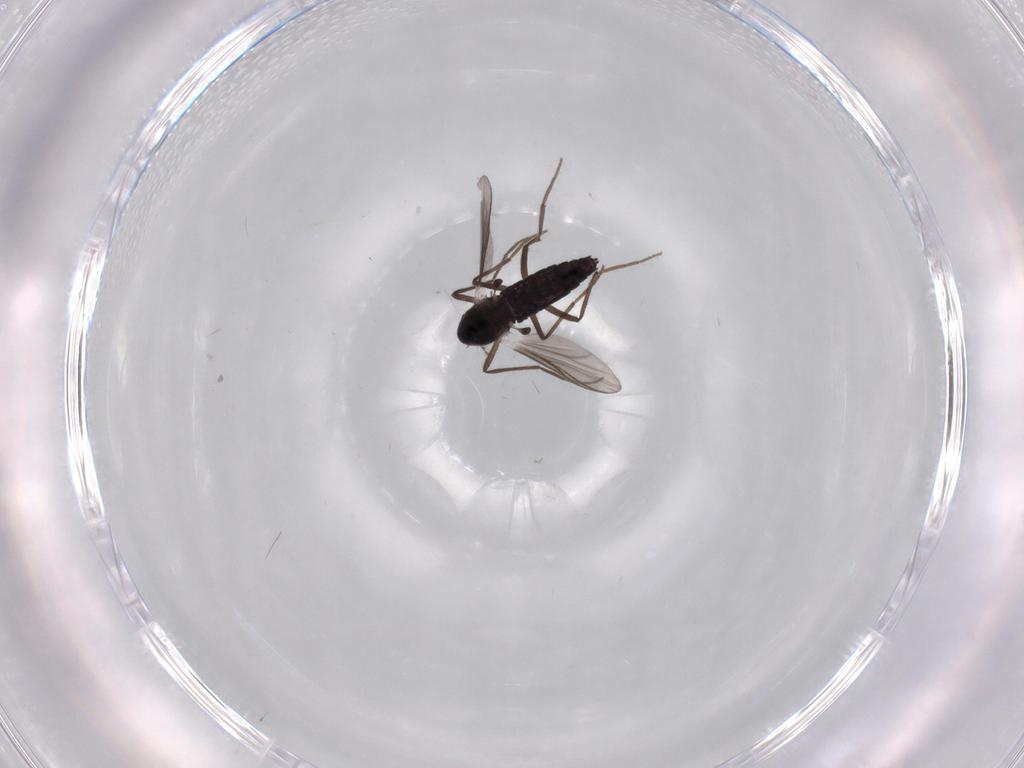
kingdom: Animalia
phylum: Arthropoda
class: Insecta
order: Diptera
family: Chironomidae
